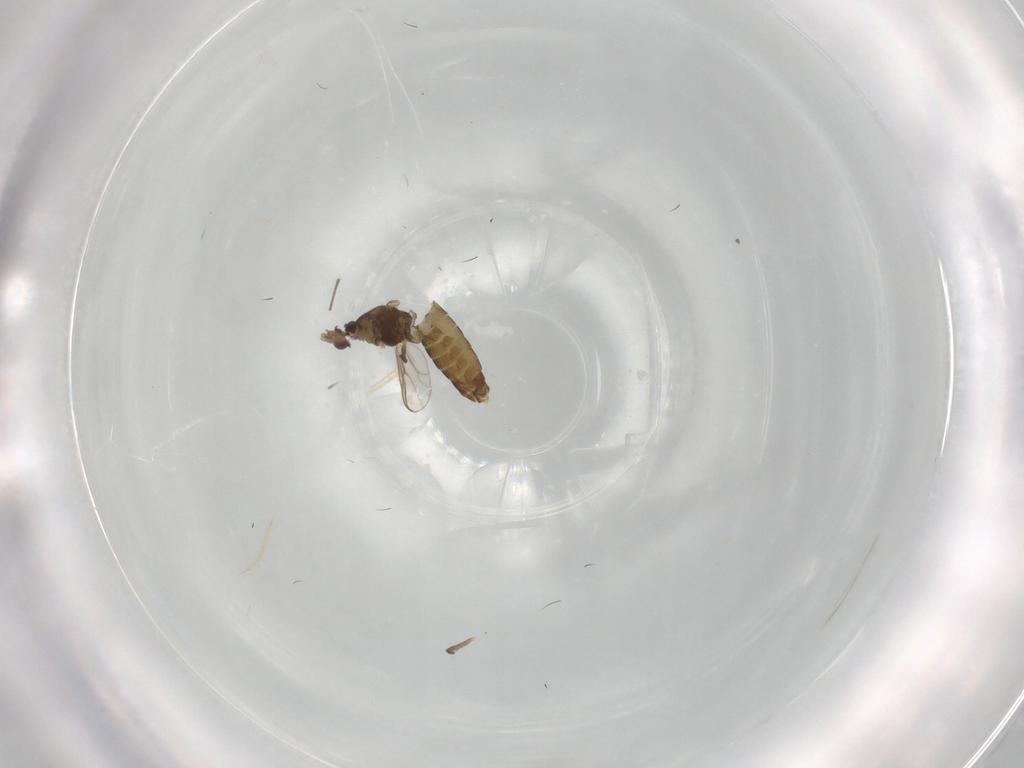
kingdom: Animalia
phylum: Arthropoda
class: Insecta
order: Diptera
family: Chironomidae
